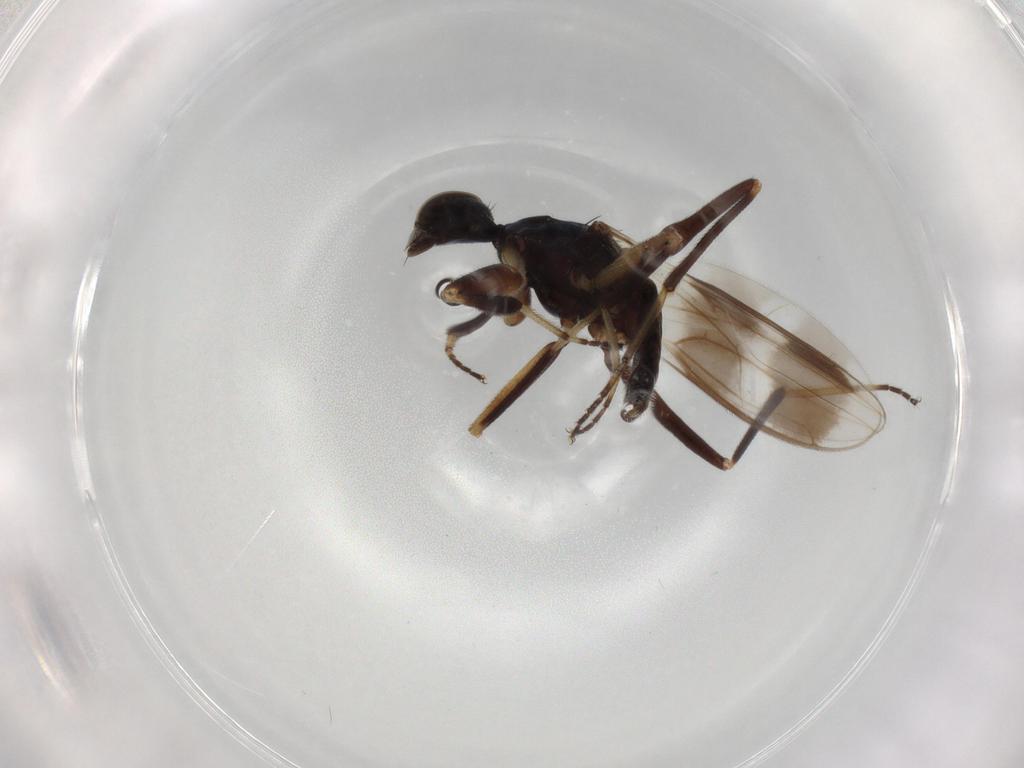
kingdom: Animalia
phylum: Arthropoda
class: Insecta
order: Diptera
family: Hybotidae
